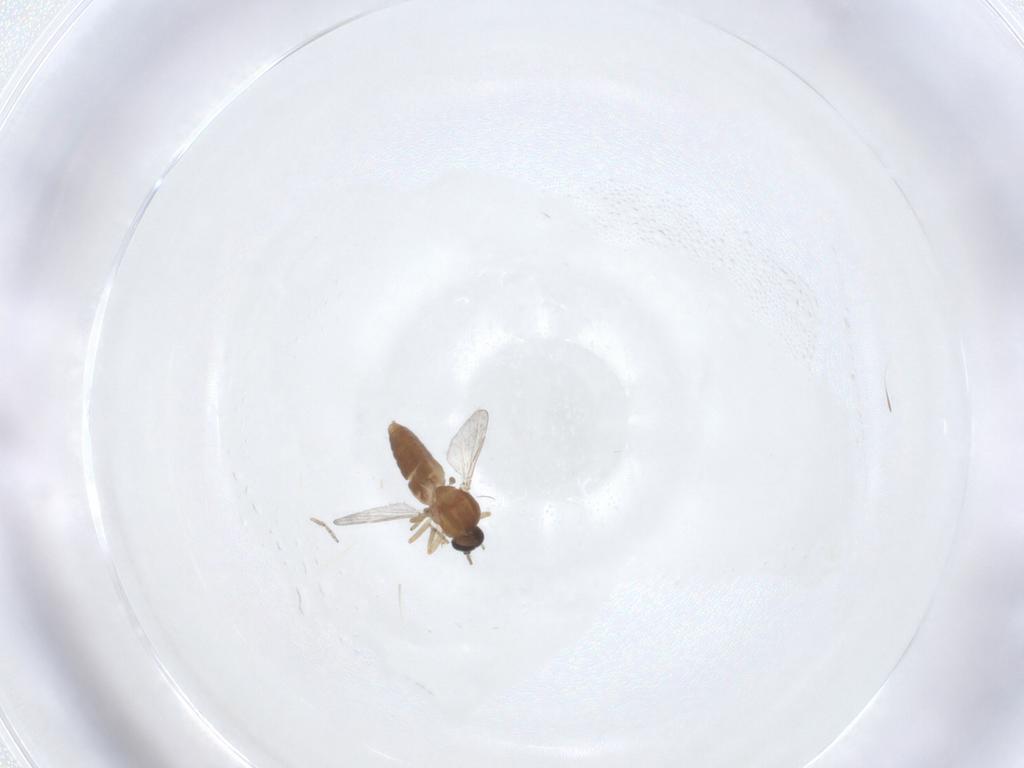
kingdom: Animalia
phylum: Arthropoda
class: Insecta
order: Diptera
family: Ceratopogonidae
